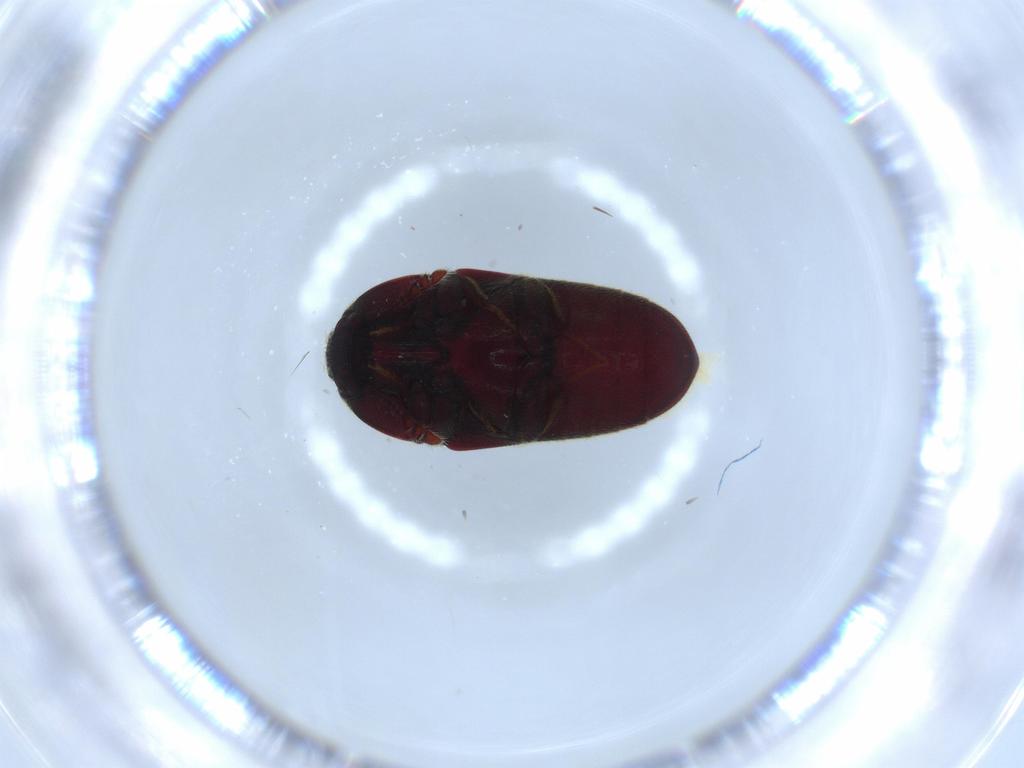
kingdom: Animalia
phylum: Arthropoda
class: Insecta
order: Coleoptera
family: Throscidae
